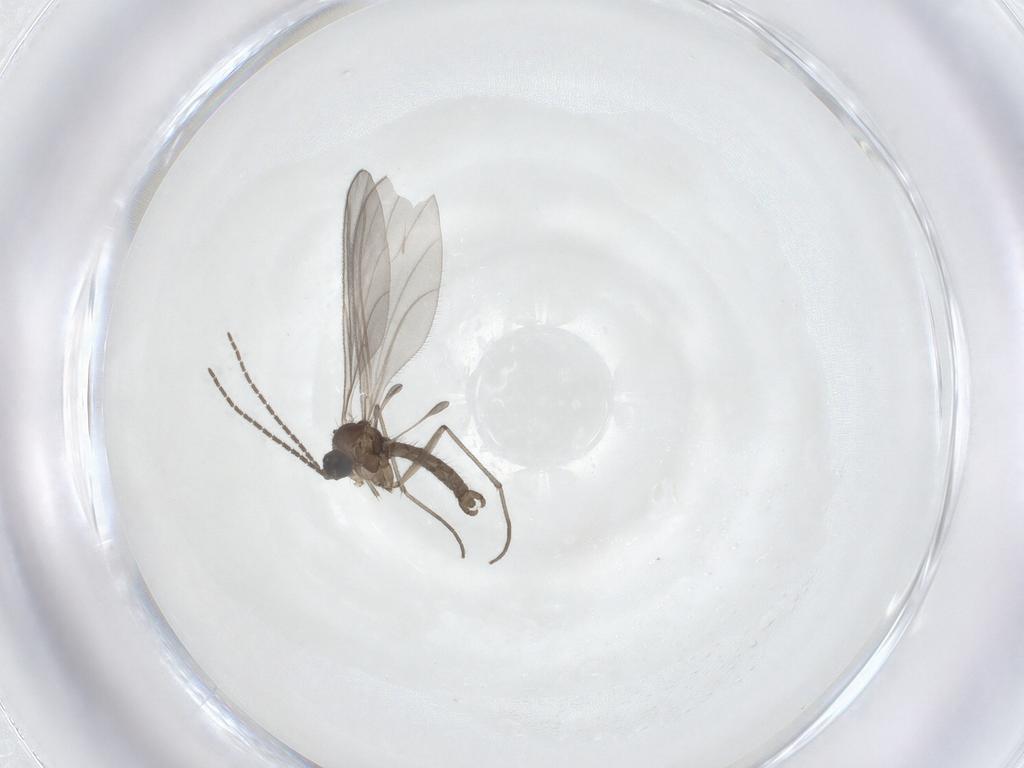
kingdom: Animalia
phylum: Arthropoda
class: Insecta
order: Diptera
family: Sciaridae
